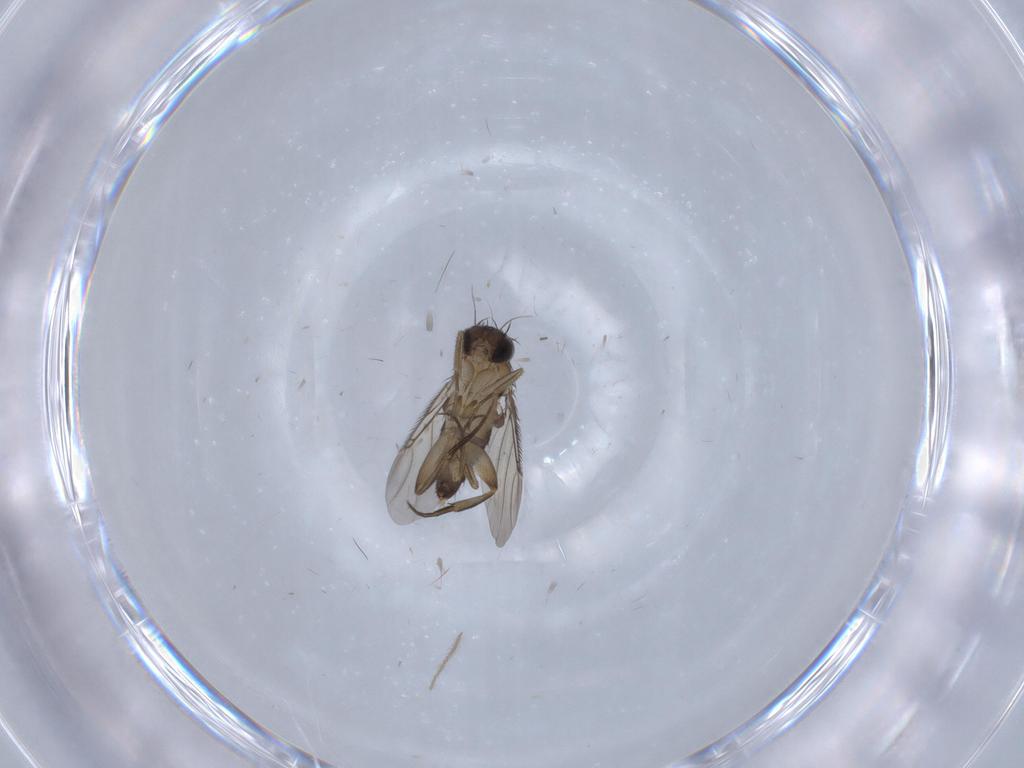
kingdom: Animalia
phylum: Arthropoda
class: Insecta
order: Diptera
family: Phoridae
